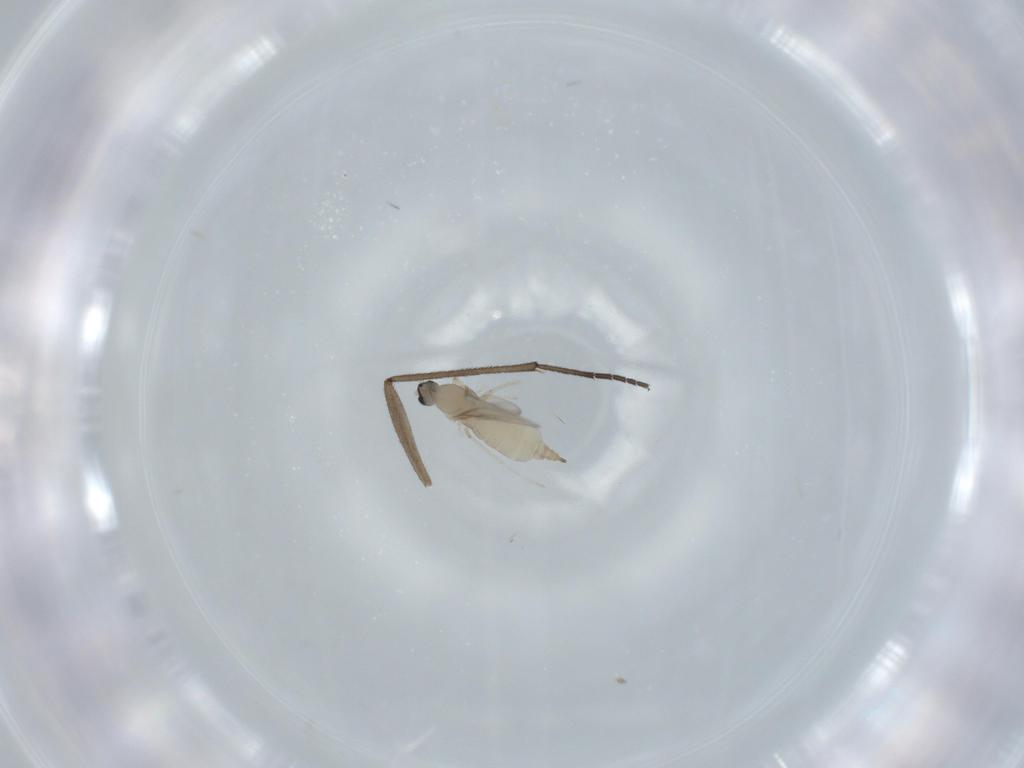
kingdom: Animalia
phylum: Arthropoda
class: Insecta
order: Diptera
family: Cecidomyiidae
